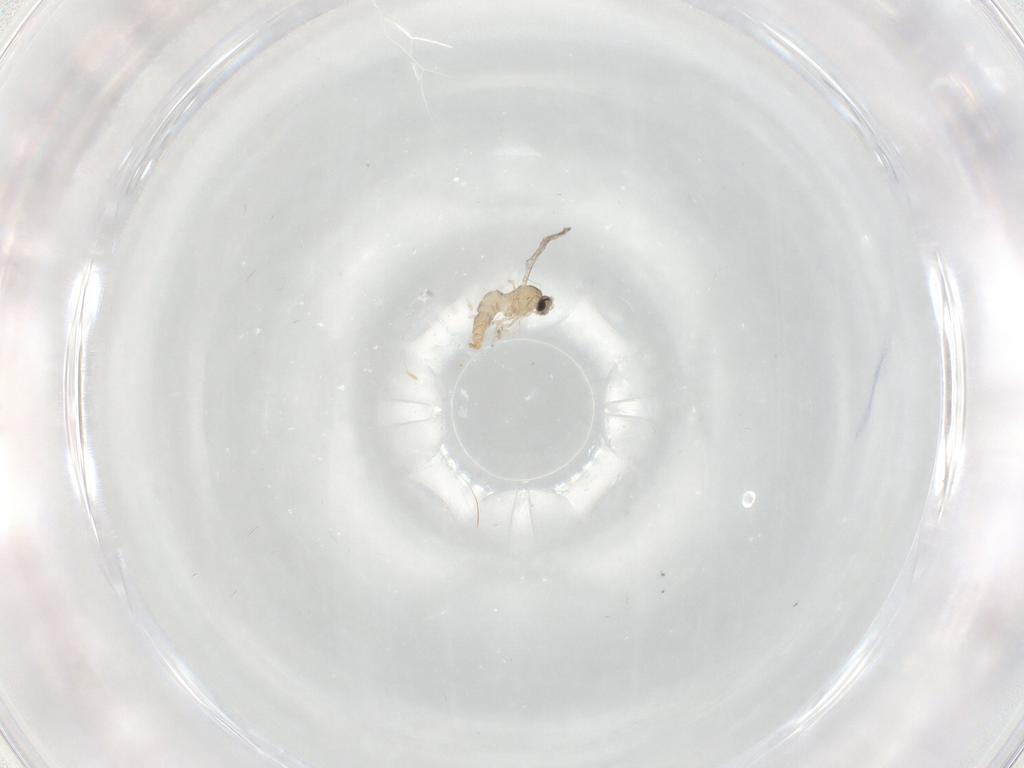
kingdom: Animalia
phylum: Arthropoda
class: Insecta
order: Diptera
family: Cecidomyiidae
